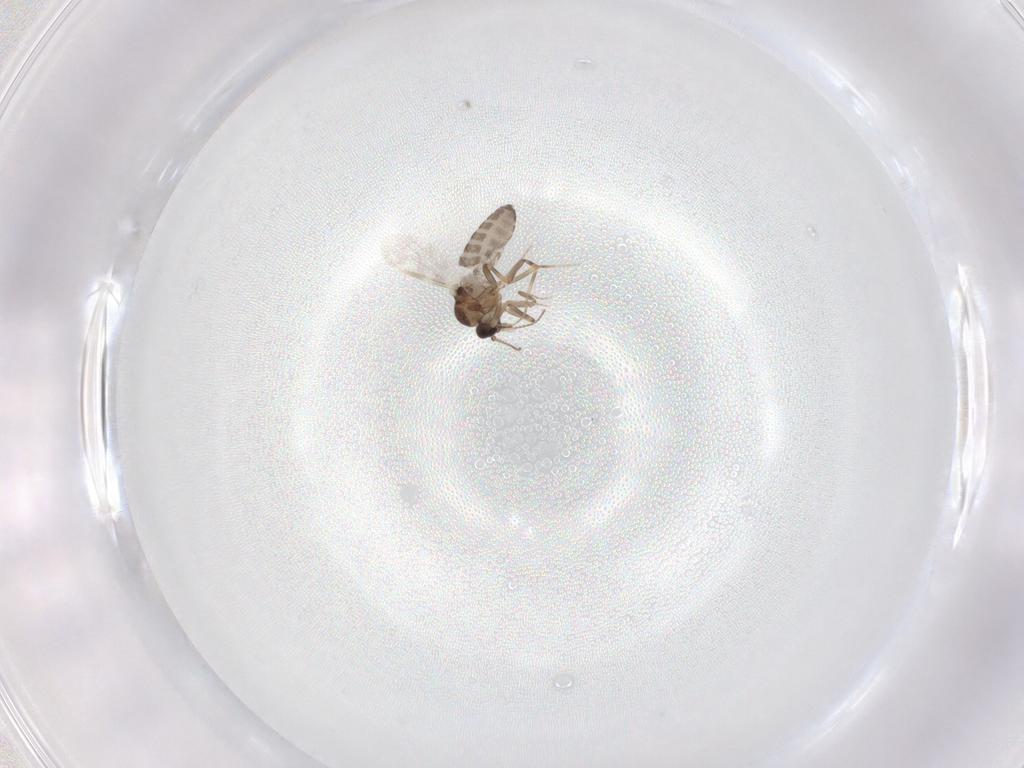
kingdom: Animalia
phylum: Arthropoda
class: Insecta
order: Diptera
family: Ceratopogonidae
